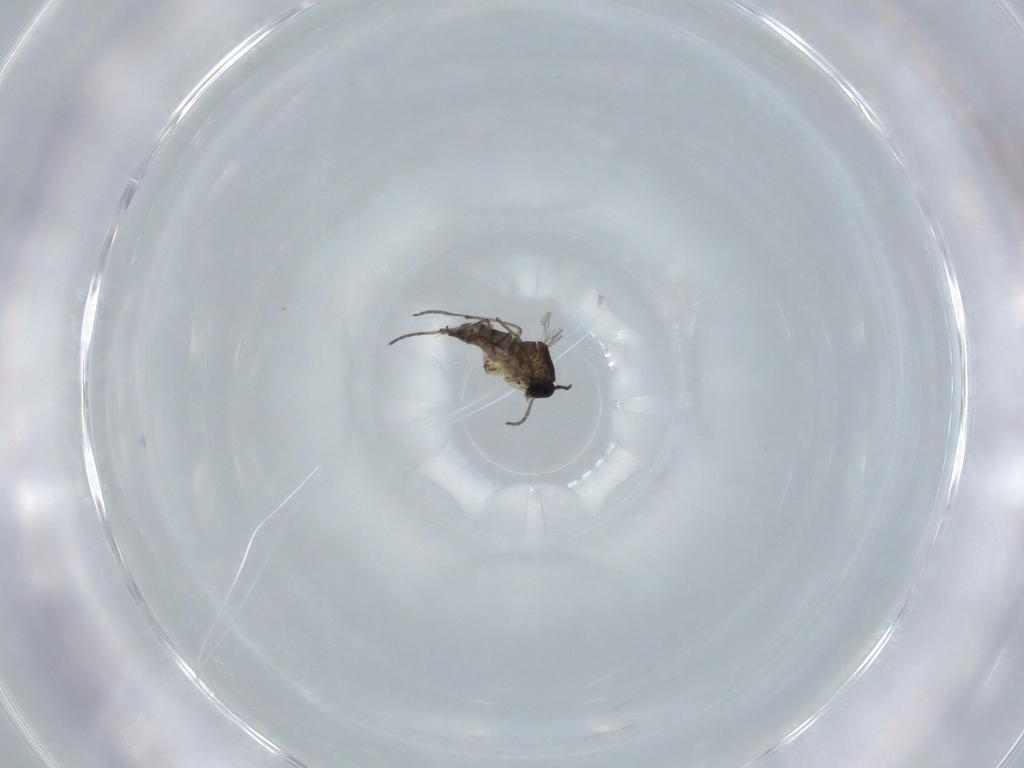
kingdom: Animalia
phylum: Arthropoda
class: Insecta
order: Diptera
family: Sciaridae
